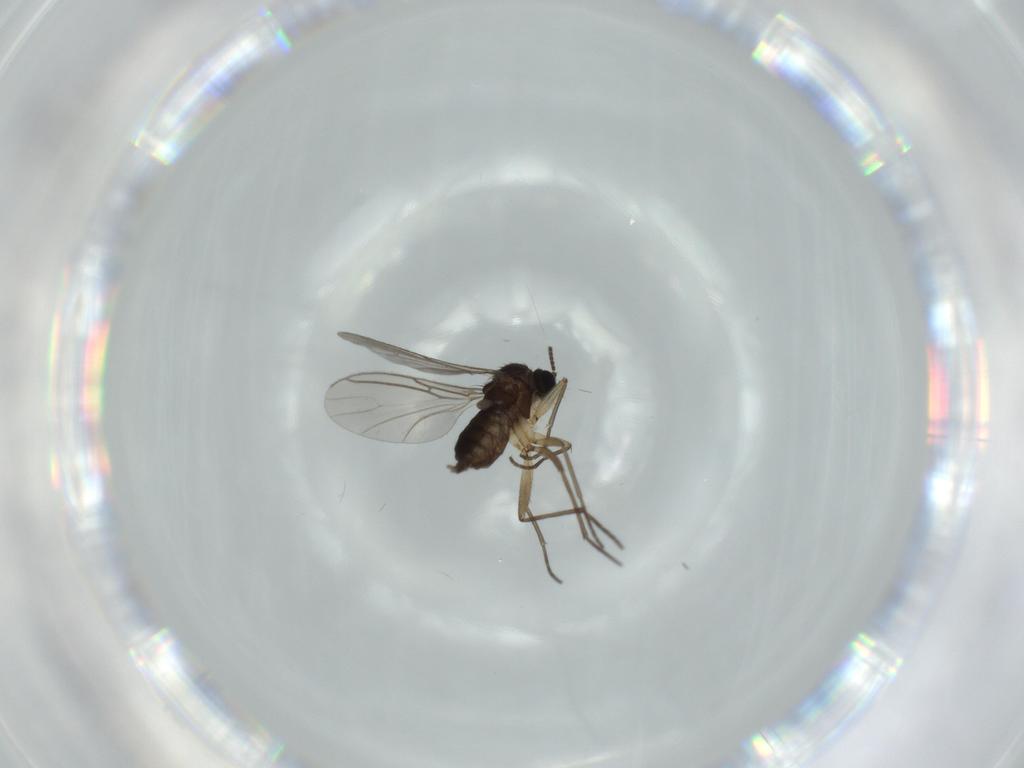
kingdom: Animalia
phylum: Arthropoda
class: Insecta
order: Diptera
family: Sciaridae
